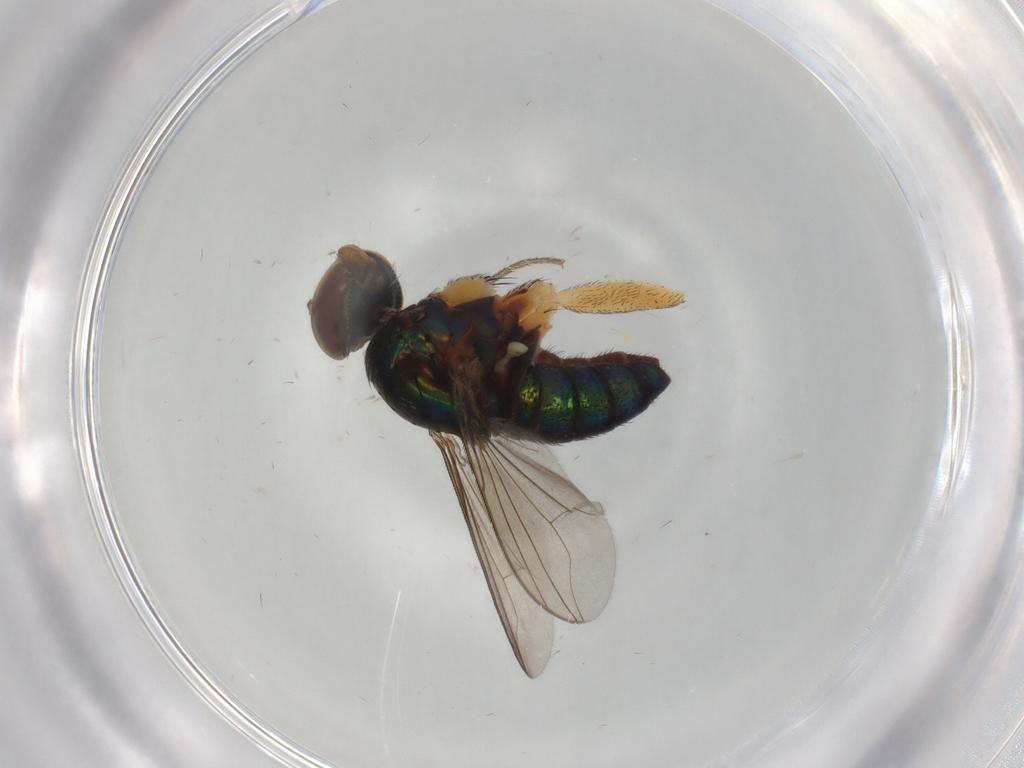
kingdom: Animalia
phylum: Arthropoda
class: Insecta
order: Diptera
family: Dolichopodidae
